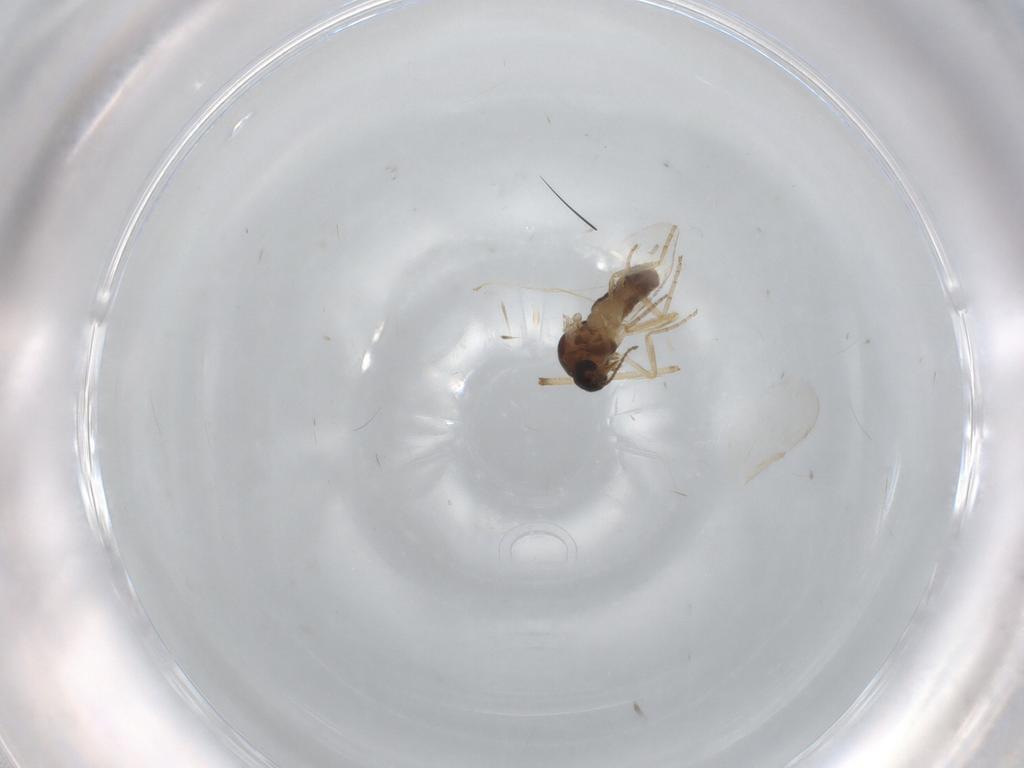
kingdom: Animalia
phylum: Arthropoda
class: Insecta
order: Diptera
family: Ceratopogonidae
